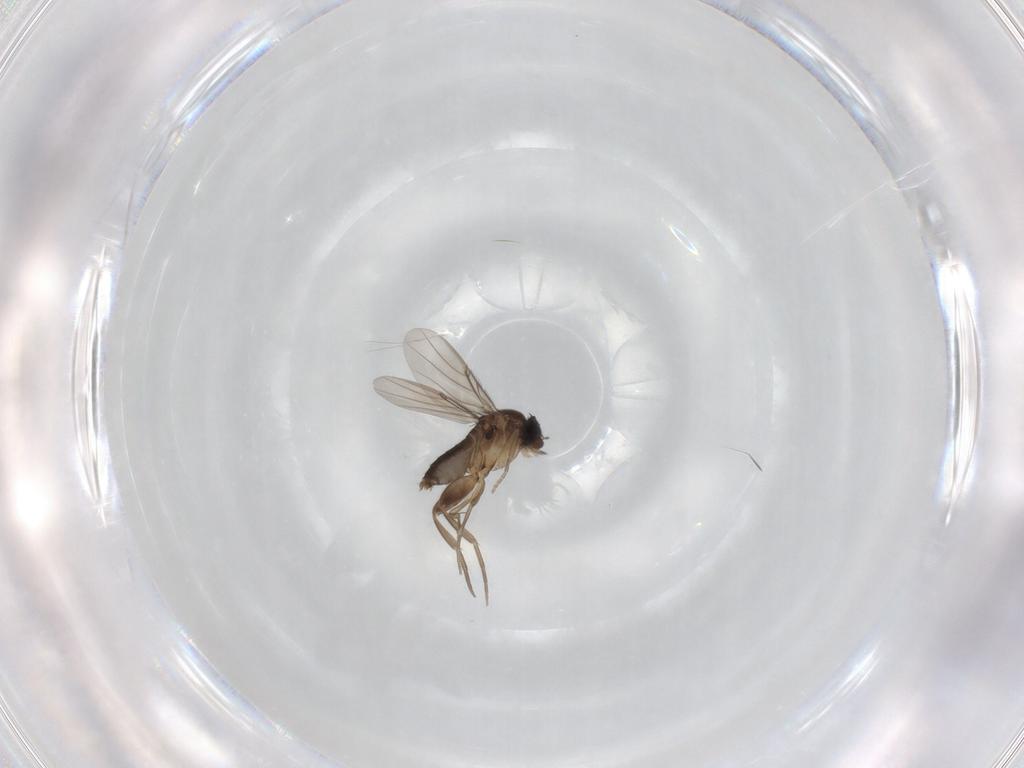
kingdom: Animalia
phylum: Arthropoda
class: Insecta
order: Diptera
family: Phoridae
